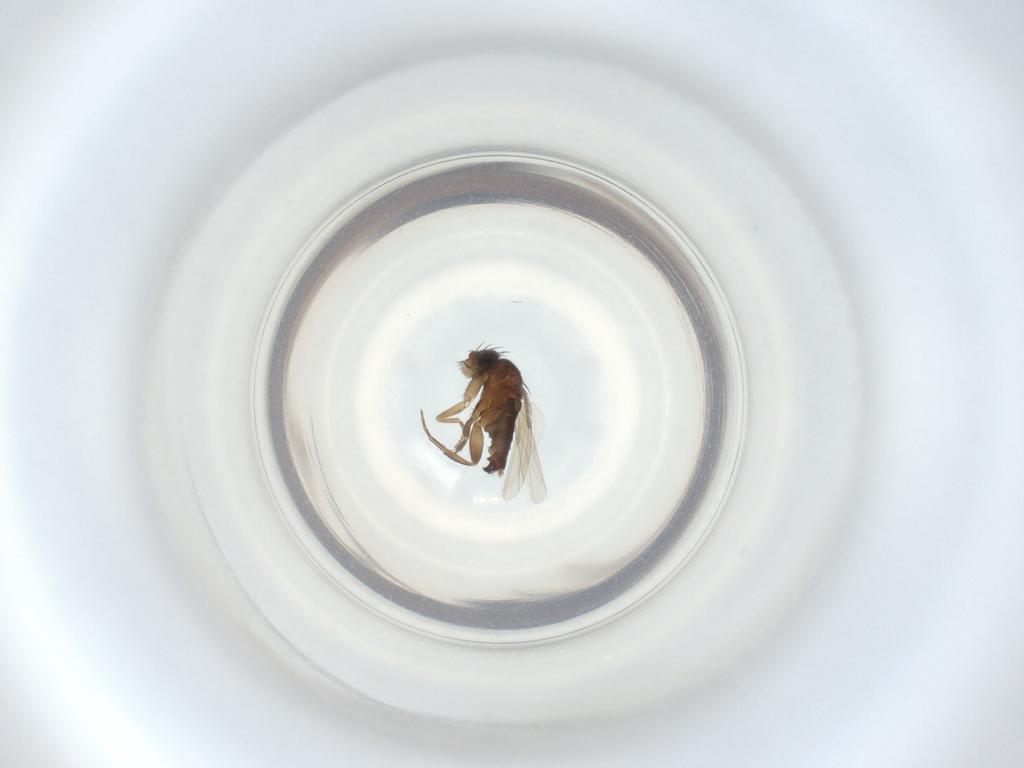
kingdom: Animalia
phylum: Arthropoda
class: Insecta
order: Diptera
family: Phoridae
